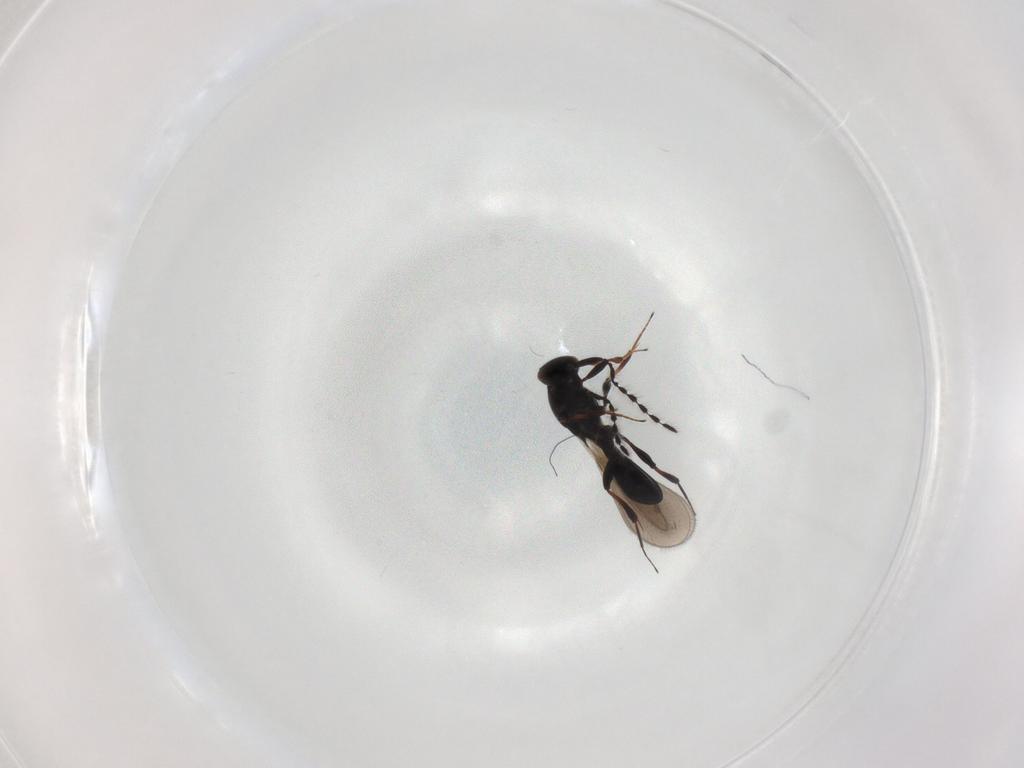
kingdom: Animalia
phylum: Arthropoda
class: Insecta
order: Hymenoptera
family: Platygastridae
